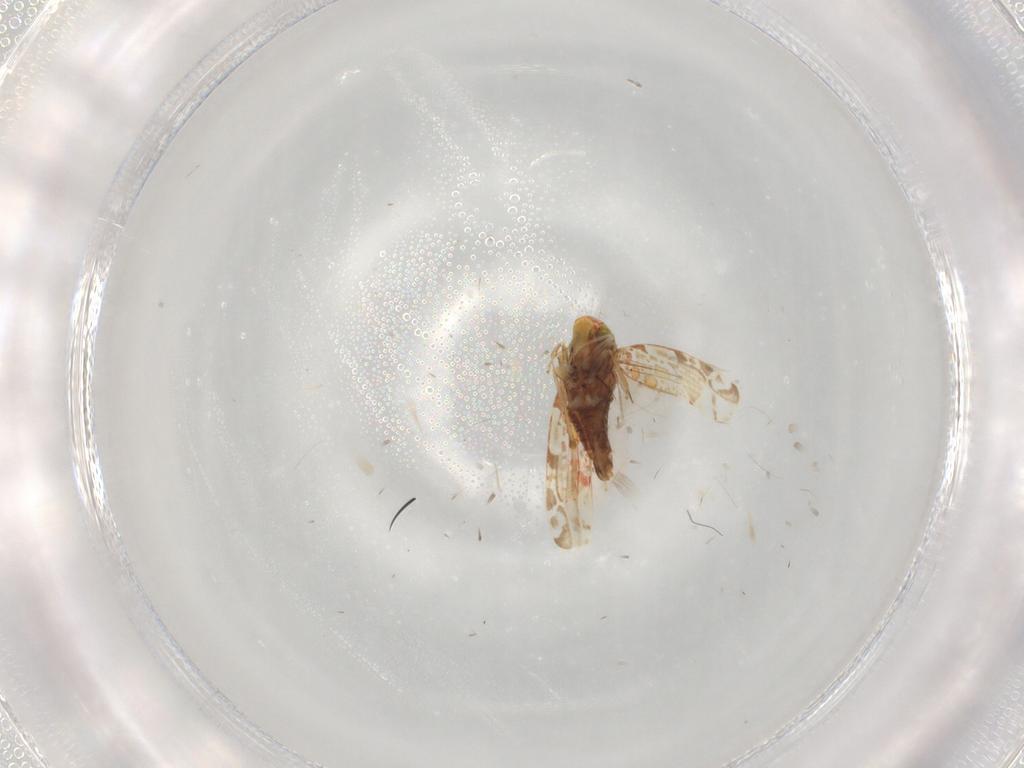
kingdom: Animalia
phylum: Arthropoda
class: Insecta
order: Hemiptera
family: Cicadellidae
